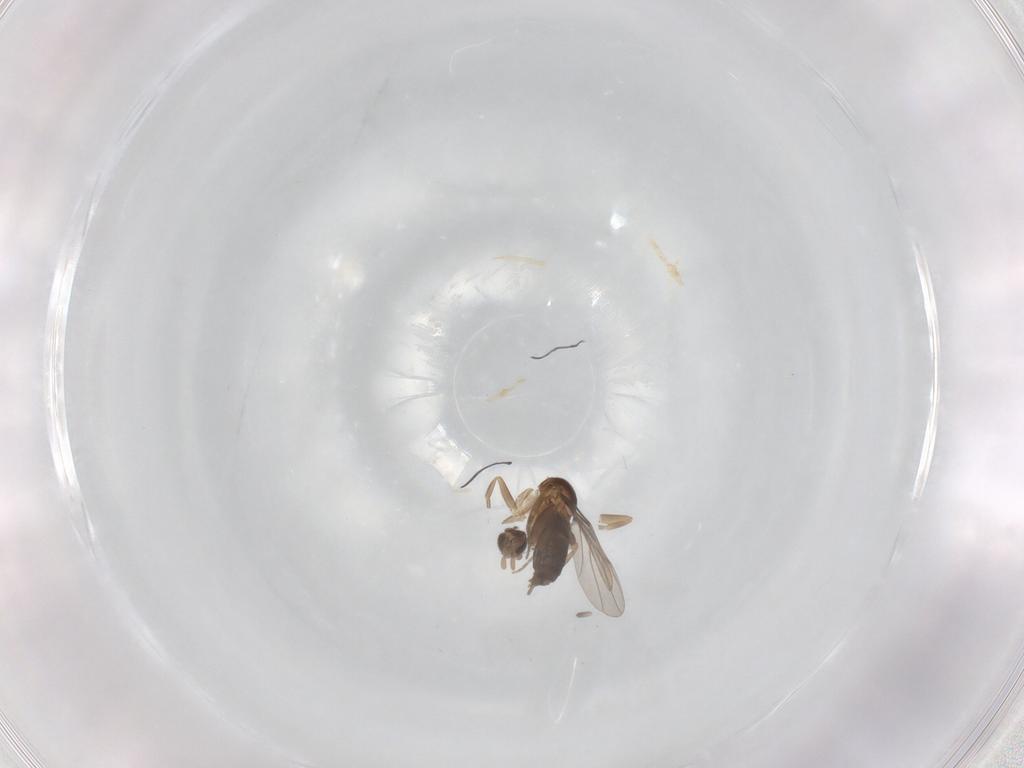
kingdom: Animalia
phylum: Arthropoda
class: Insecta
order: Diptera
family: Phoridae
